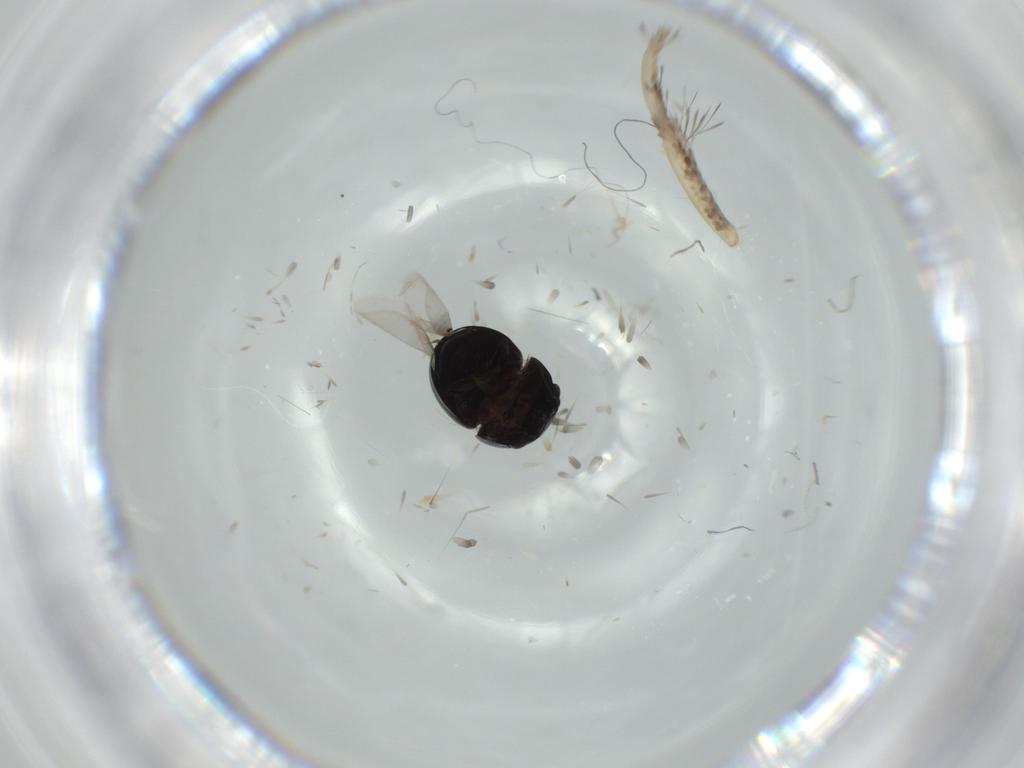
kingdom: Animalia
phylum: Arthropoda
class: Insecta
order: Coleoptera
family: Cybocephalidae
